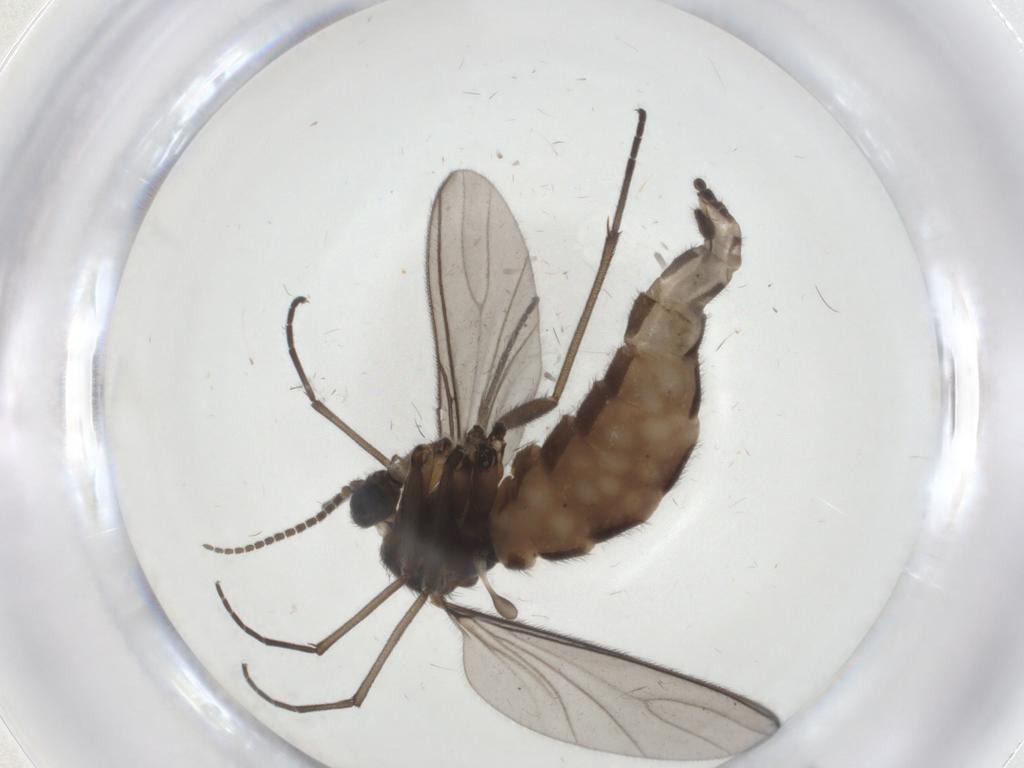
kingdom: Animalia
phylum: Arthropoda
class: Insecta
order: Diptera
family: Sciaridae
